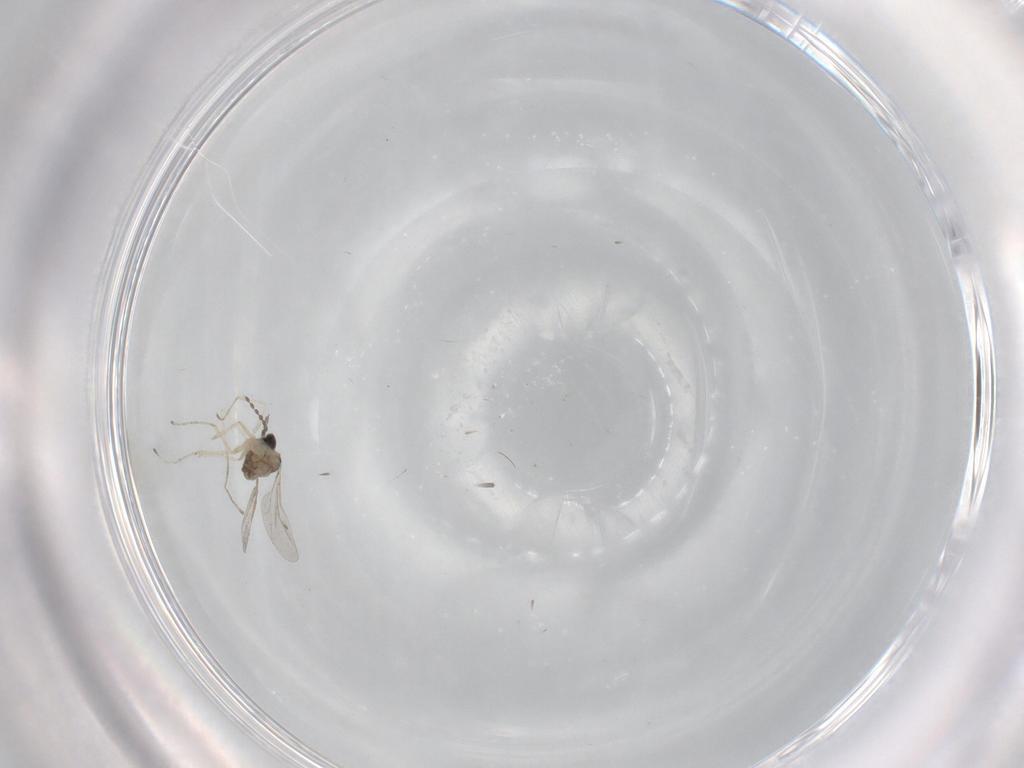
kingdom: Animalia
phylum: Arthropoda
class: Insecta
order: Diptera
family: Cecidomyiidae
